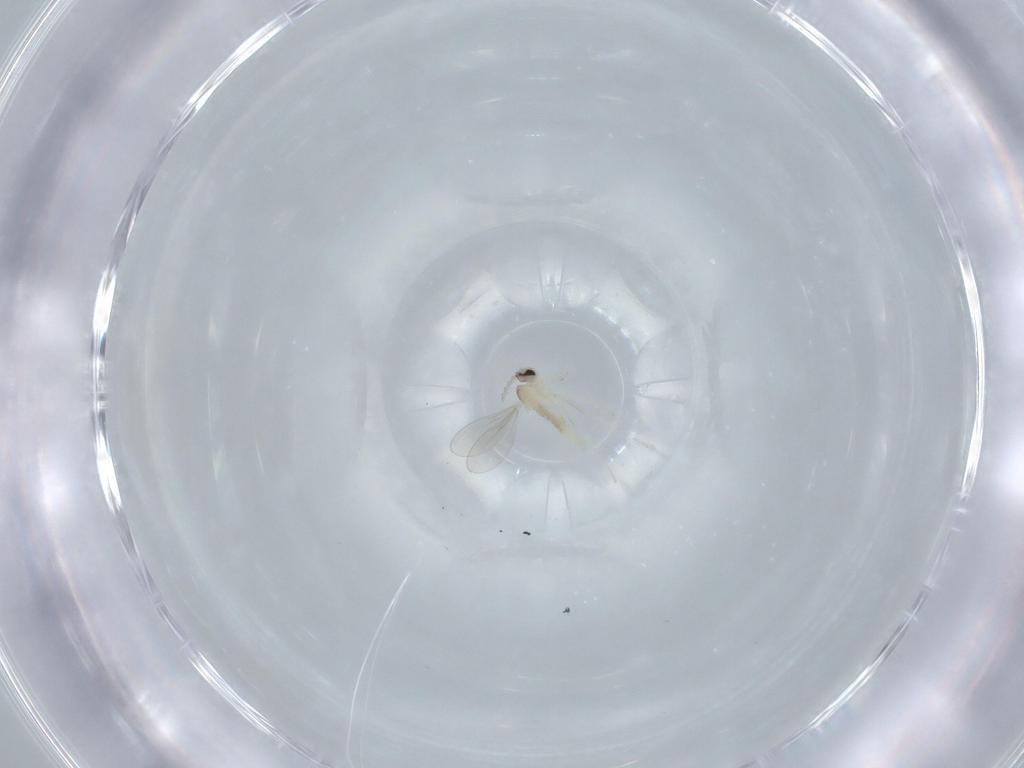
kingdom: Animalia
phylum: Arthropoda
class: Insecta
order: Diptera
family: Cecidomyiidae
